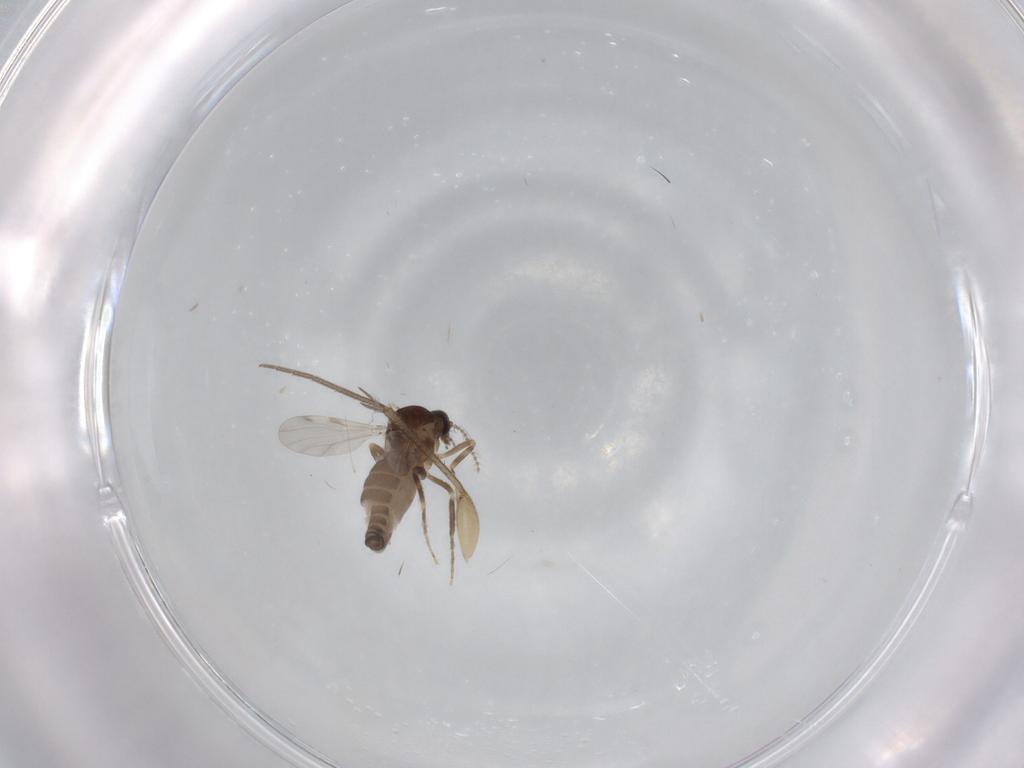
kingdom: Animalia
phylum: Arthropoda
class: Insecta
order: Diptera
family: Ceratopogonidae
